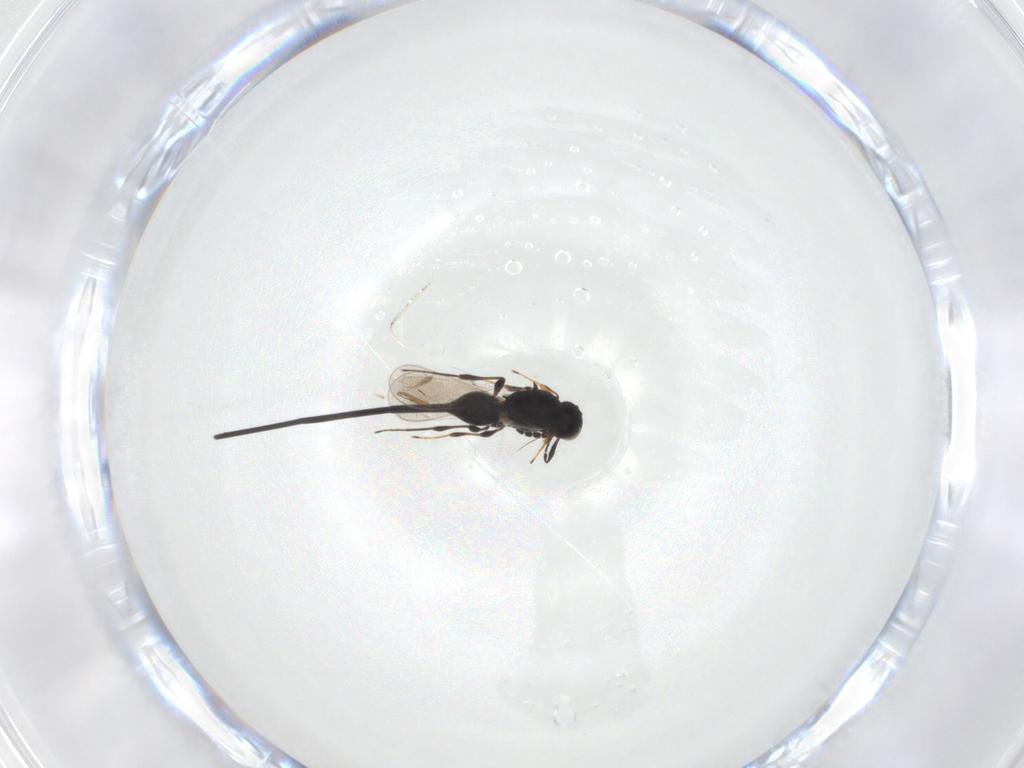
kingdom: Animalia
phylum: Arthropoda
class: Insecta
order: Hymenoptera
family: Platygastridae
